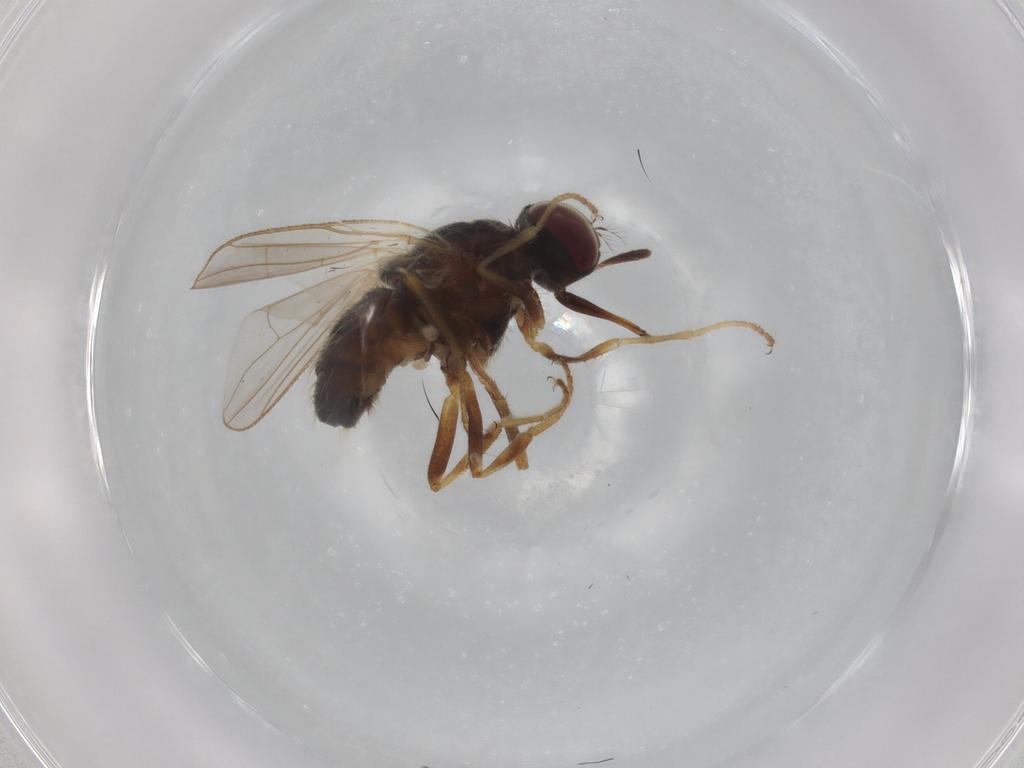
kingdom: Animalia
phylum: Arthropoda
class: Insecta
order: Diptera
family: Muscidae
